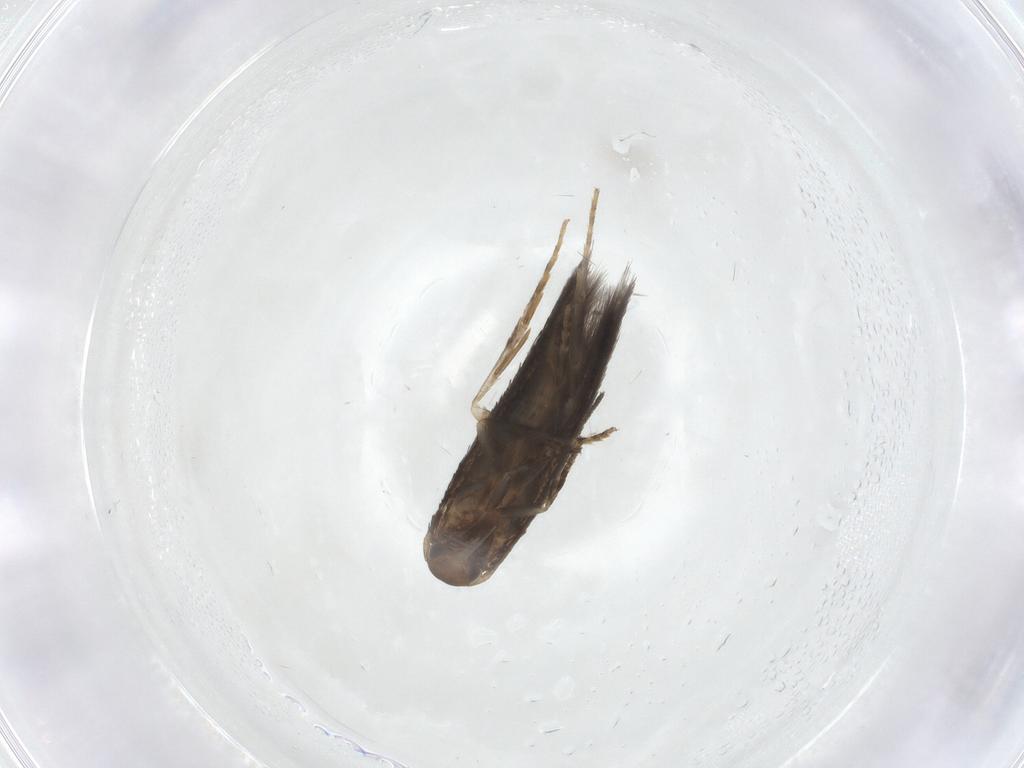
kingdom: Animalia
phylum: Arthropoda
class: Insecta
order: Lepidoptera
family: Elachistidae
